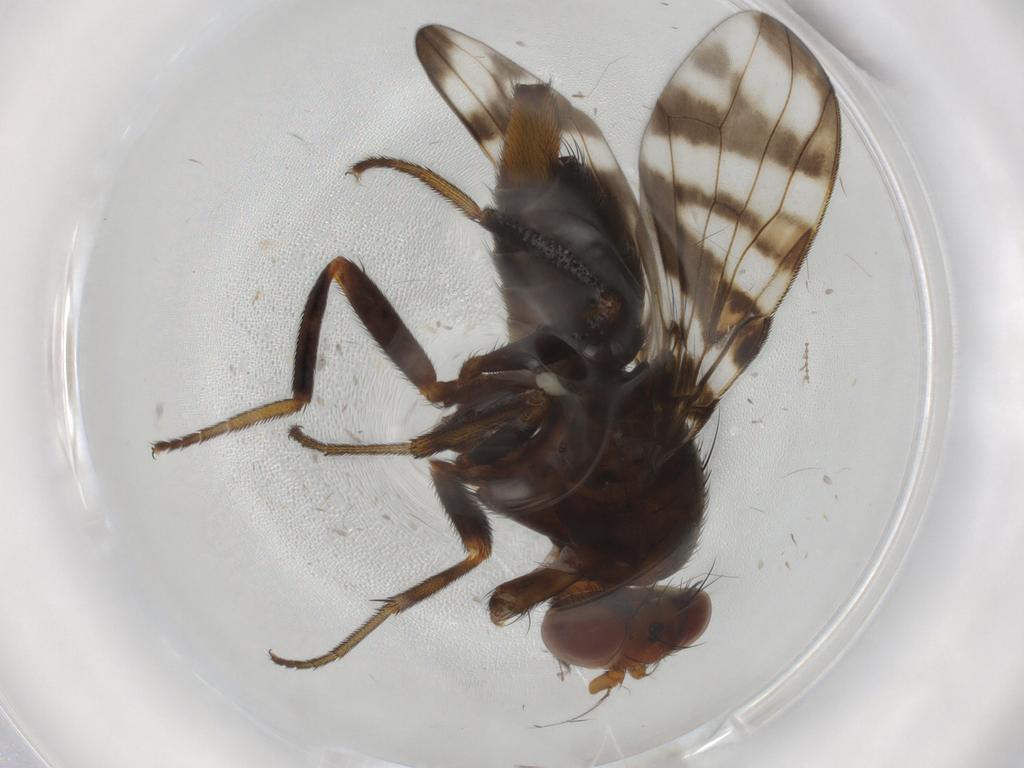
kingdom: Animalia
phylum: Arthropoda
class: Insecta
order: Diptera
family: Ulidiidae
